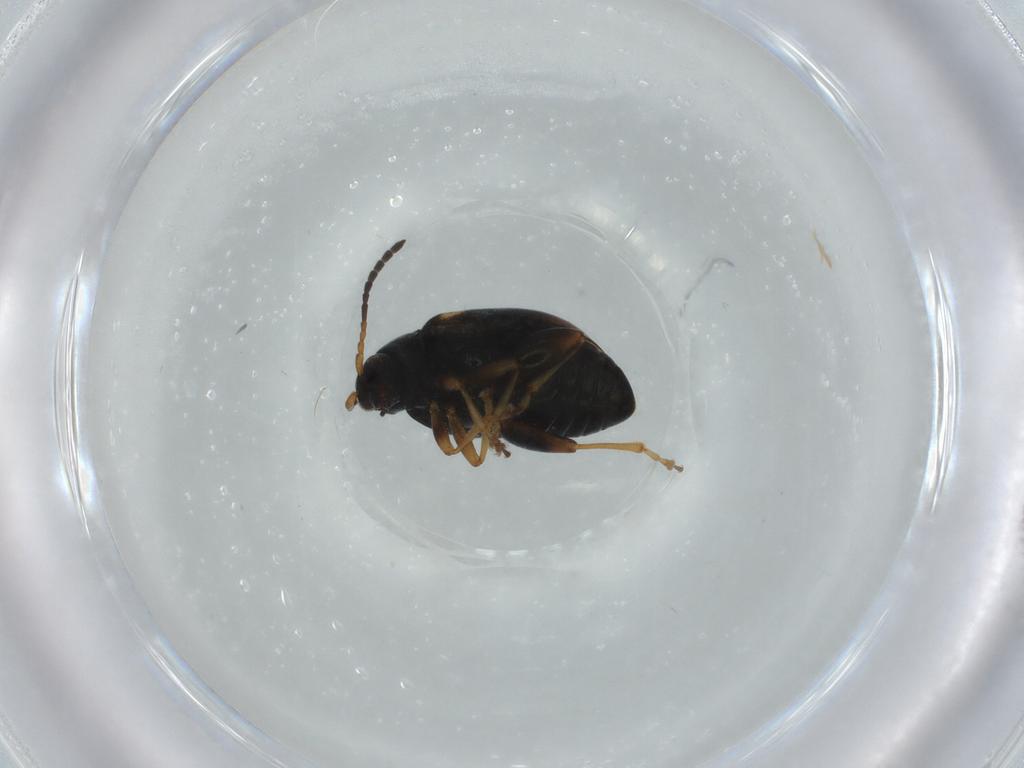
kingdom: Animalia
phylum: Arthropoda
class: Insecta
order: Coleoptera
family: Chrysomelidae
